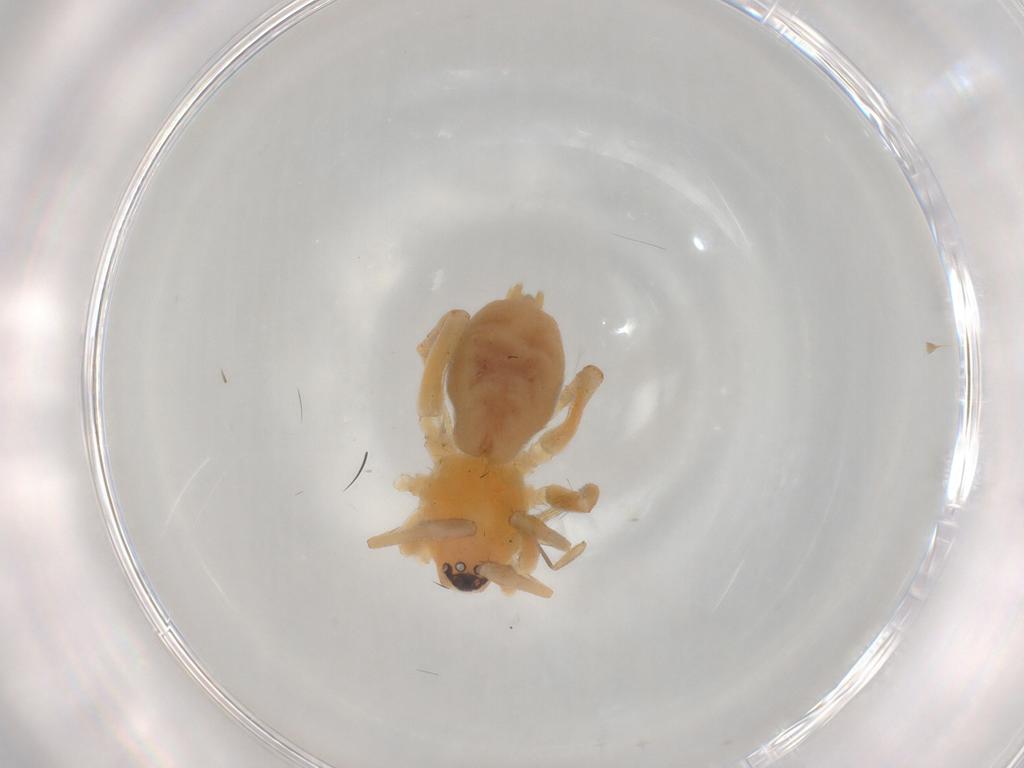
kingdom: Animalia
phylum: Arthropoda
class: Arachnida
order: Araneae
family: Gnaphosidae
